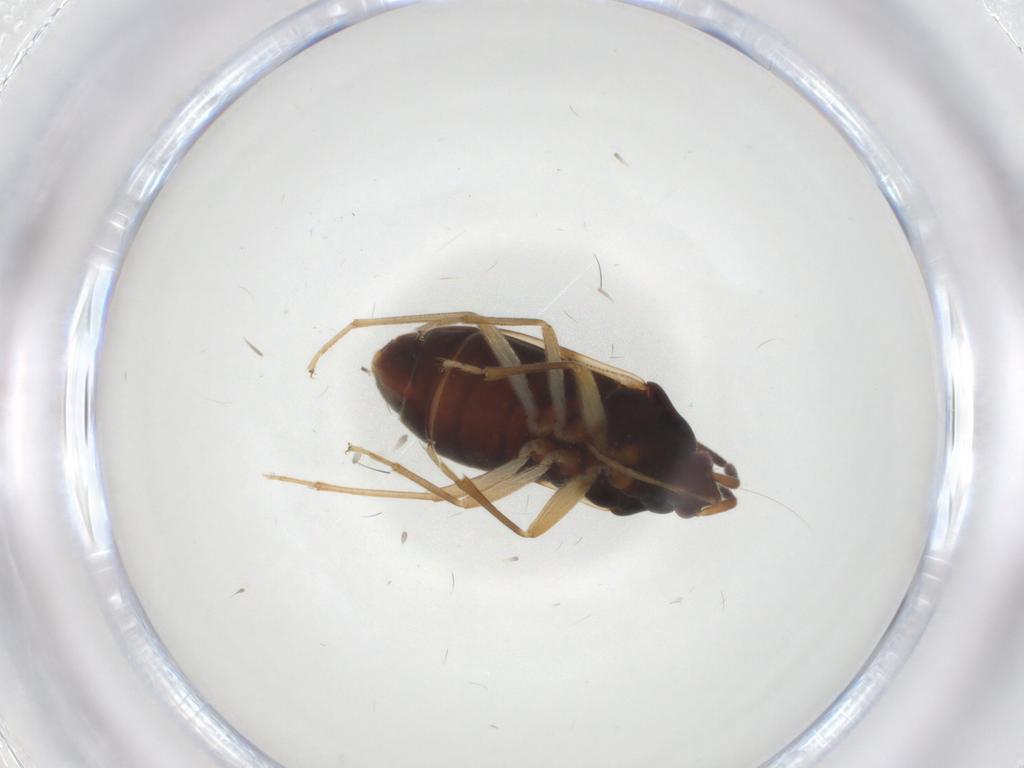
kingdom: Animalia
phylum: Arthropoda
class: Insecta
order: Hemiptera
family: Rhyparochromidae
